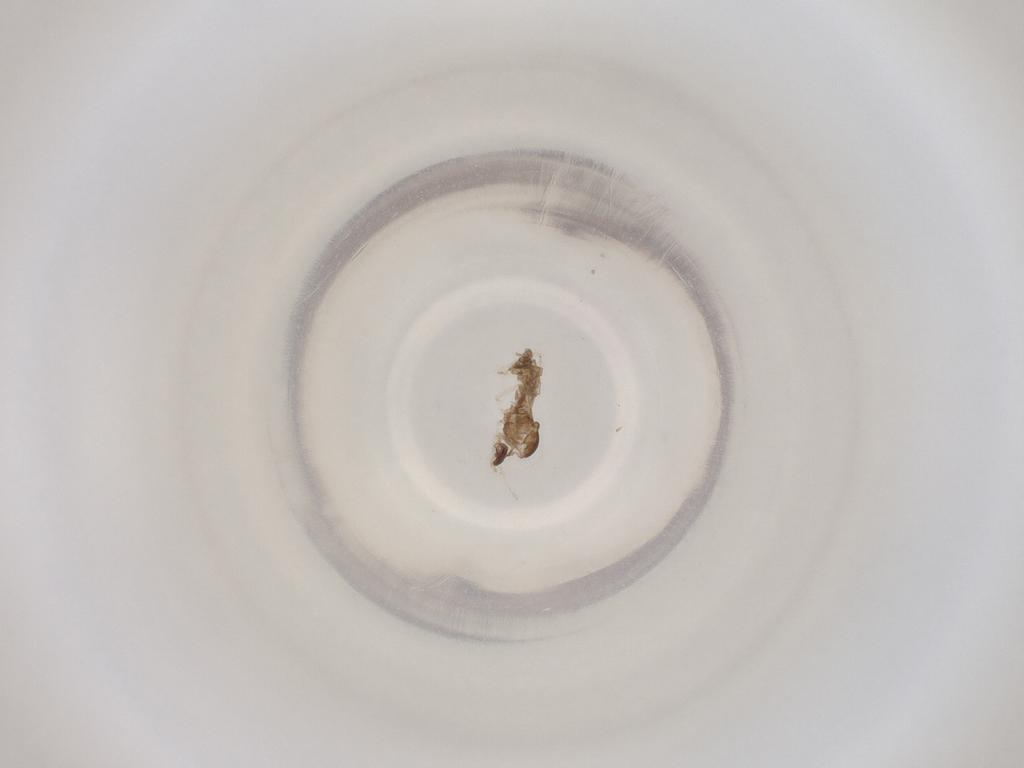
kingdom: Animalia
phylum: Arthropoda
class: Insecta
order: Diptera
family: Cecidomyiidae
